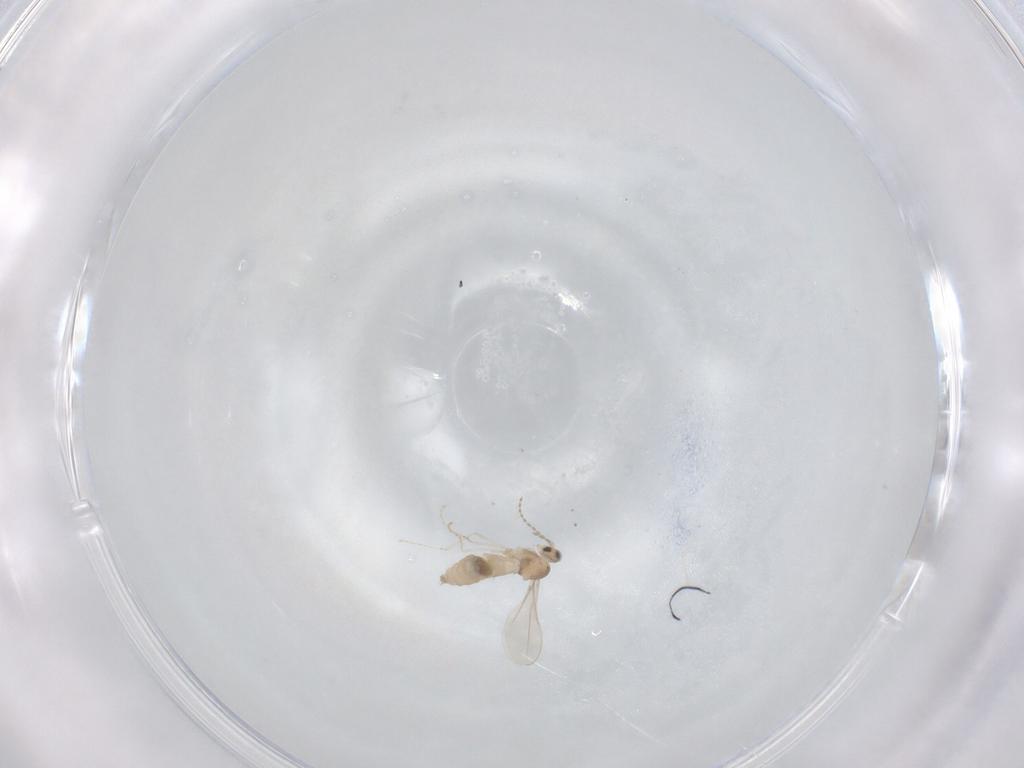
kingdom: Animalia
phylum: Arthropoda
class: Insecta
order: Diptera
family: Cecidomyiidae
